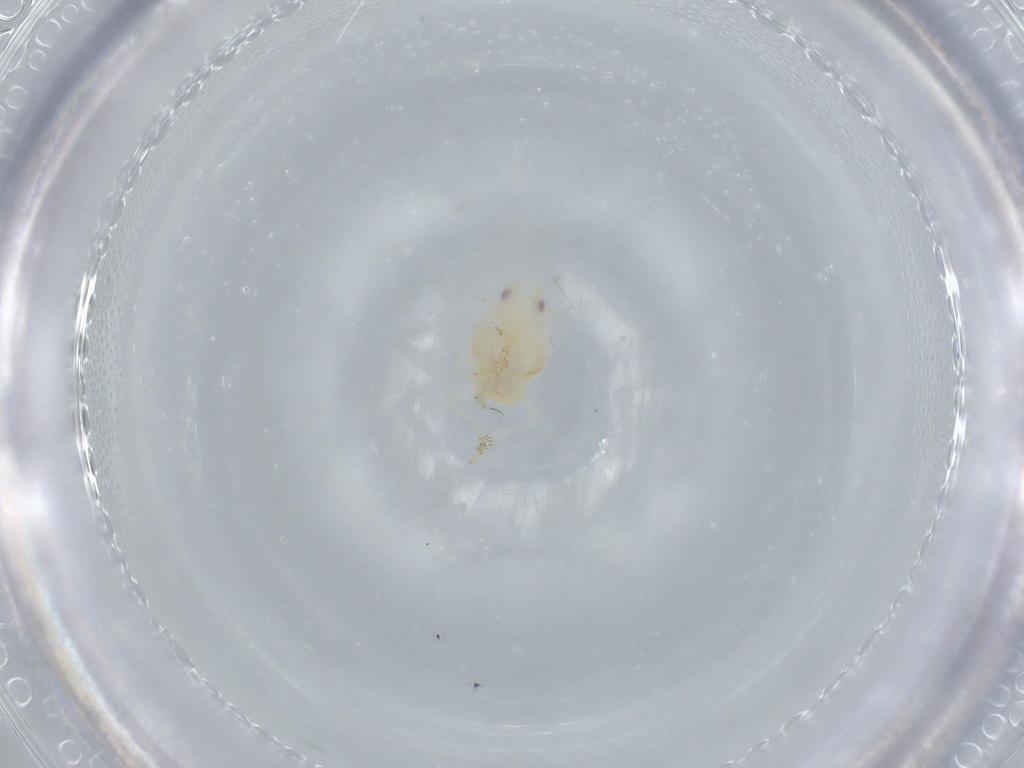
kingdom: Animalia
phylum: Arthropoda
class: Insecta
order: Hemiptera
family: Flatidae
